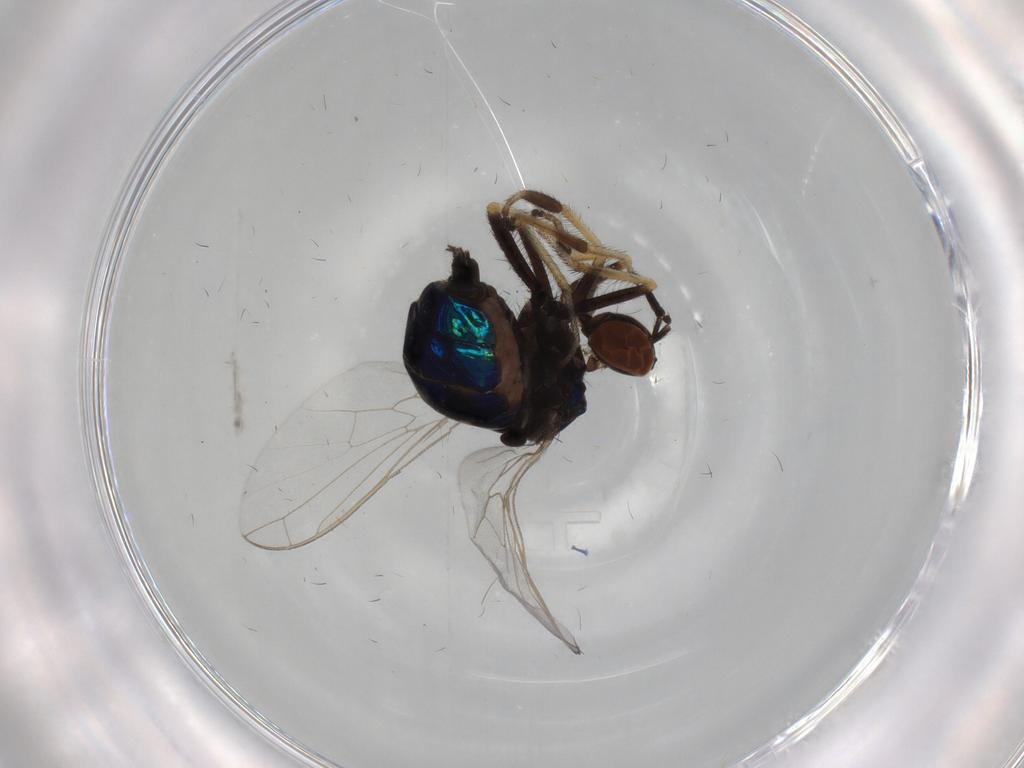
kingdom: Animalia
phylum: Arthropoda
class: Insecta
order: Diptera
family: Empididae
